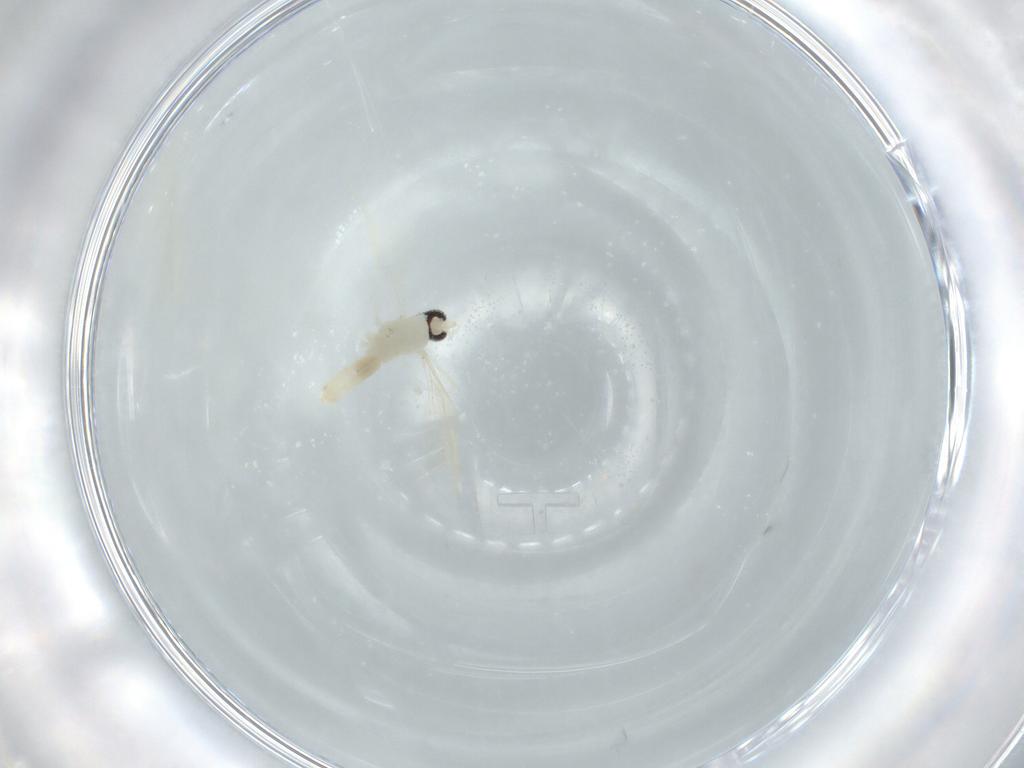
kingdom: Animalia
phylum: Arthropoda
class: Insecta
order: Diptera
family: Cecidomyiidae
